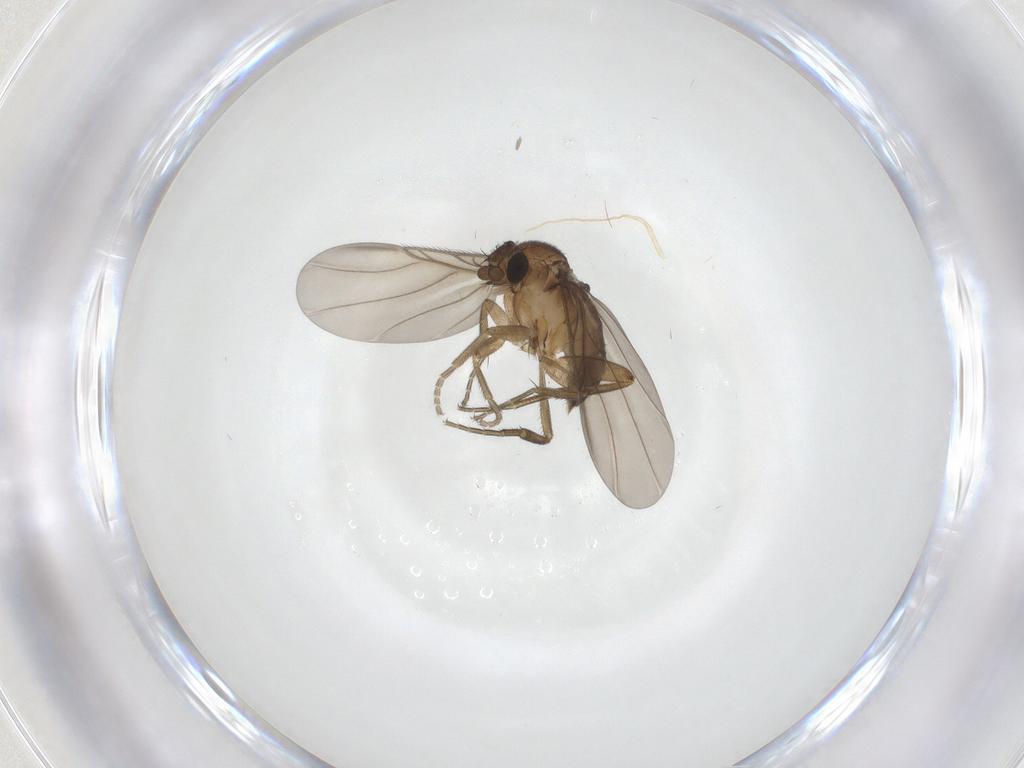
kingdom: Animalia
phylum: Arthropoda
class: Insecta
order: Diptera
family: Phoridae
